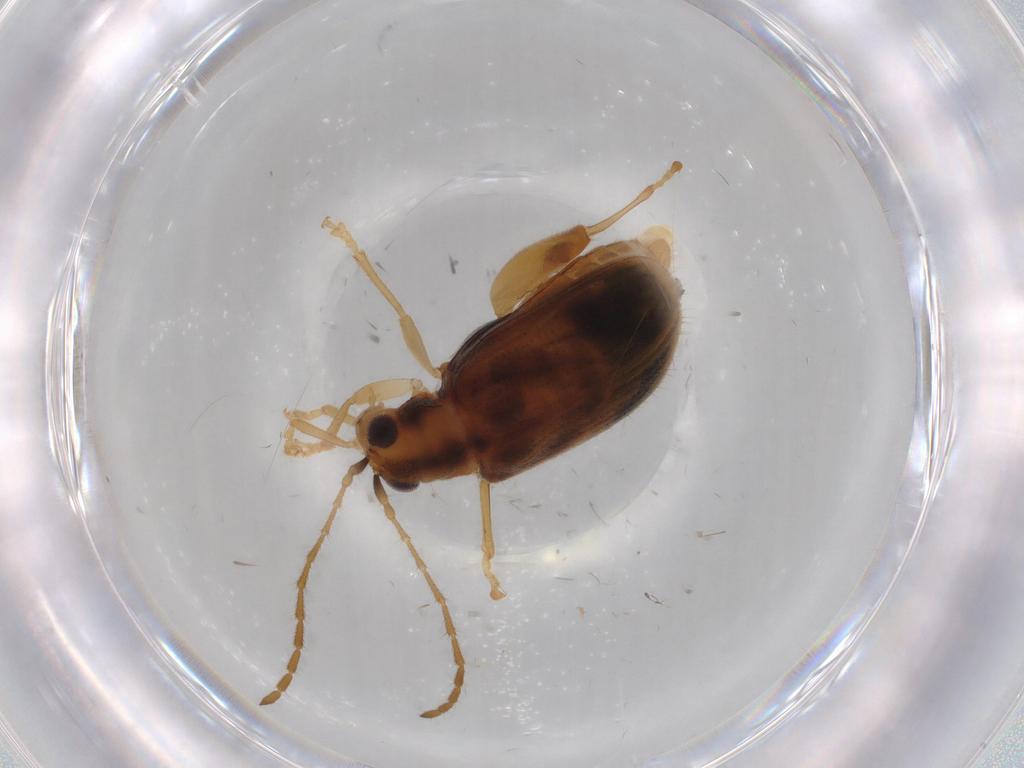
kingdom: Animalia
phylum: Arthropoda
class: Insecta
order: Coleoptera
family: Chrysomelidae
